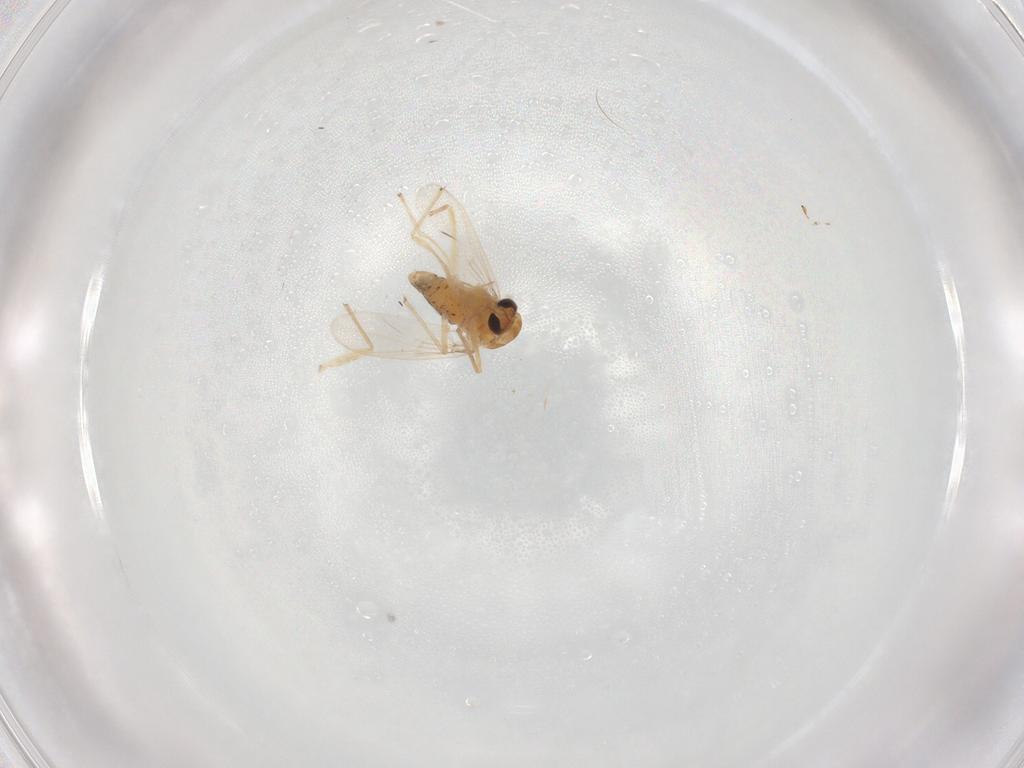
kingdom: Animalia
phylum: Arthropoda
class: Insecta
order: Diptera
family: Chironomidae
